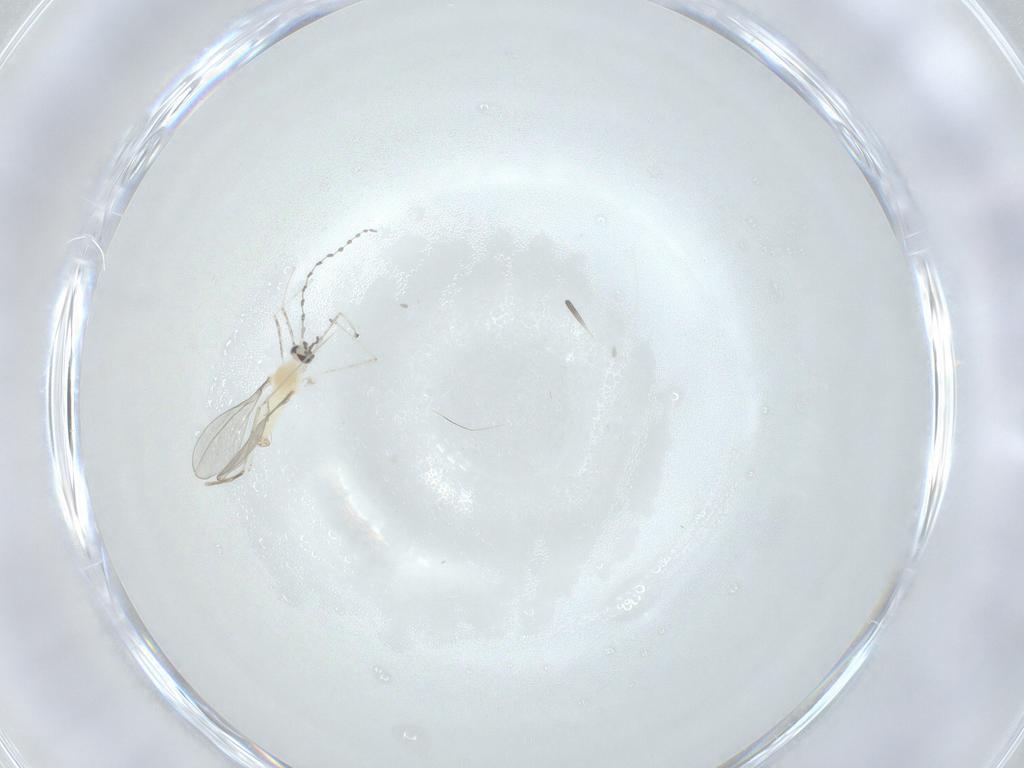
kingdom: Animalia
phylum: Arthropoda
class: Insecta
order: Diptera
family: Cecidomyiidae
